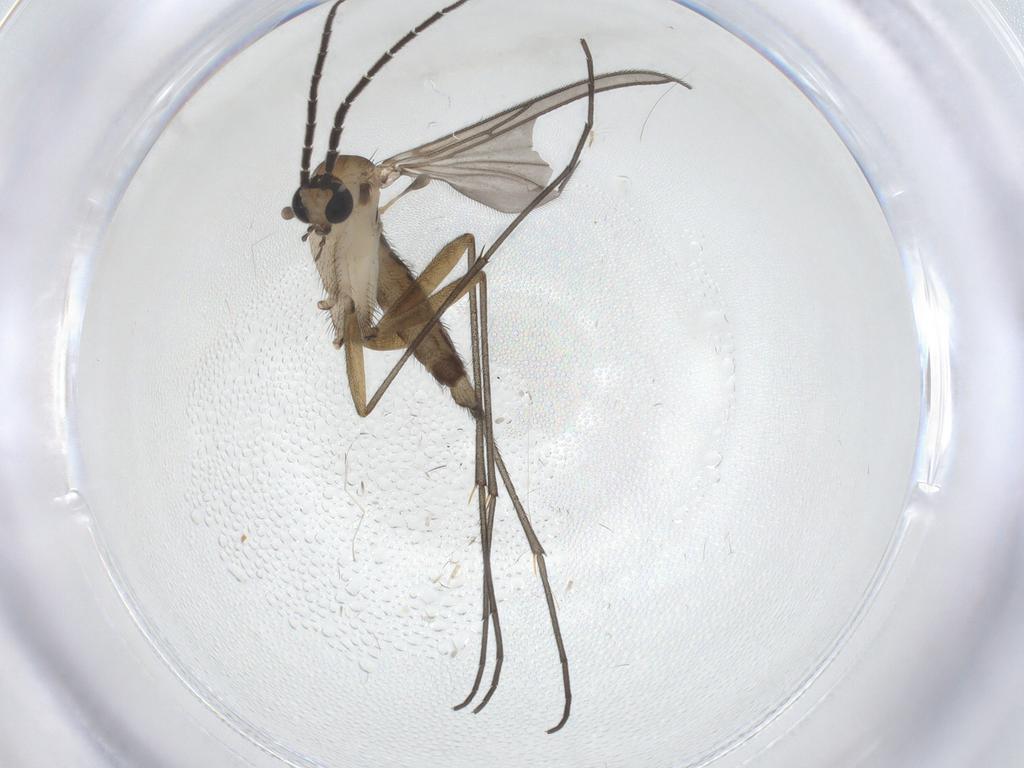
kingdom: Animalia
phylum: Arthropoda
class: Insecta
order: Diptera
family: Sciaridae
